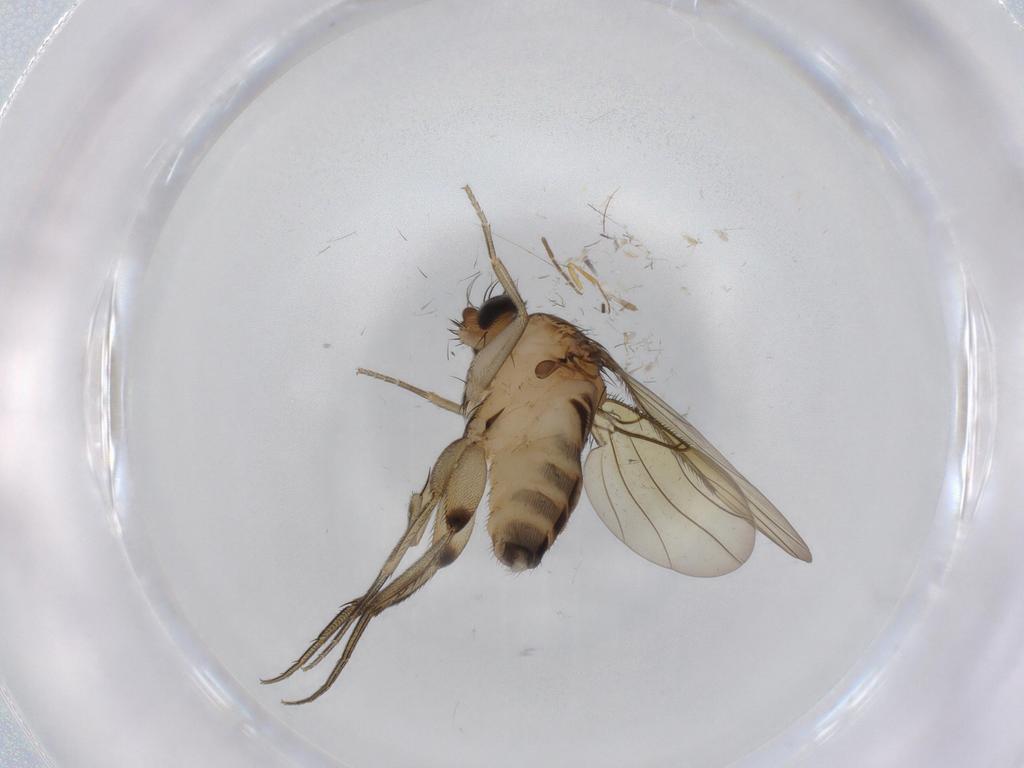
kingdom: Animalia
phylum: Arthropoda
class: Insecta
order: Diptera
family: Phoridae
